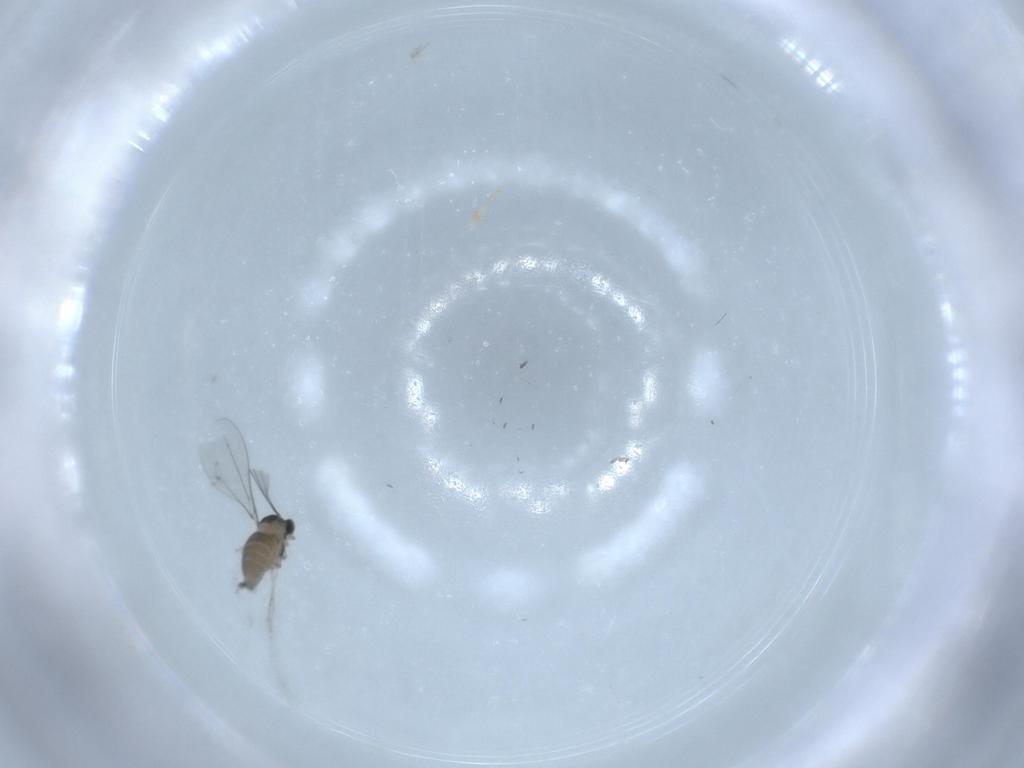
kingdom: Animalia
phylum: Arthropoda
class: Insecta
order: Diptera
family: Cecidomyiidae
